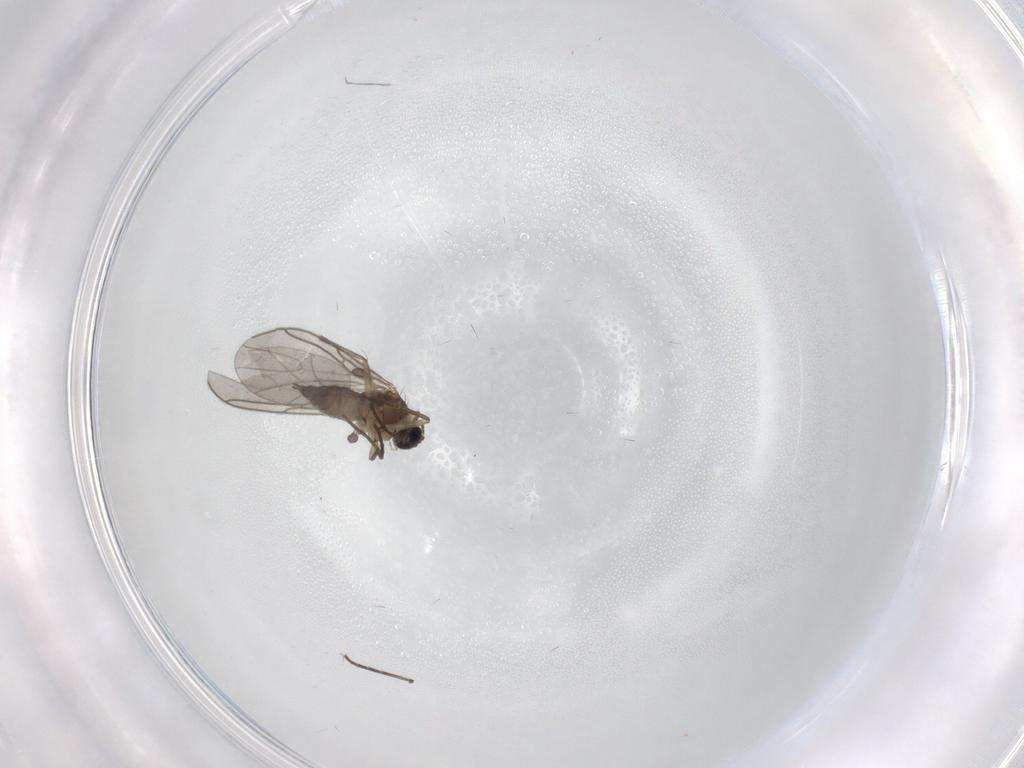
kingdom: Animalia
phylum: Arthropoda
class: Insecta
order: Diptera
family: Sciaridae
